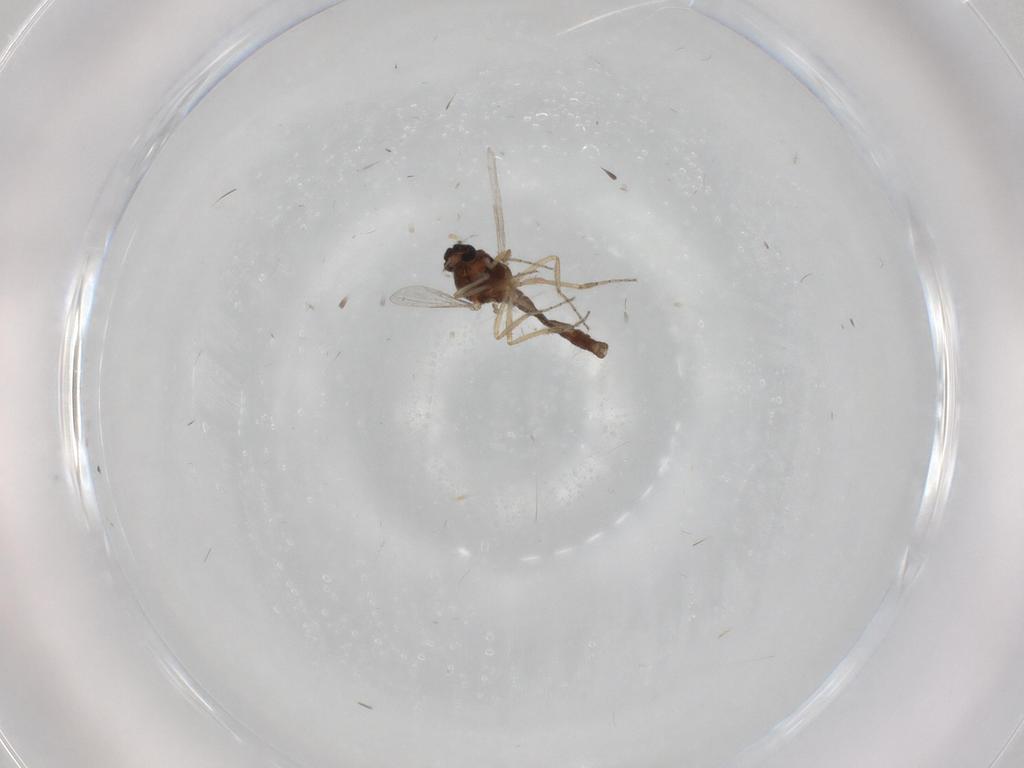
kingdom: Animalia
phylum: Arthropoda
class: Insecta
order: Diptera
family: Ceratopogonidae
